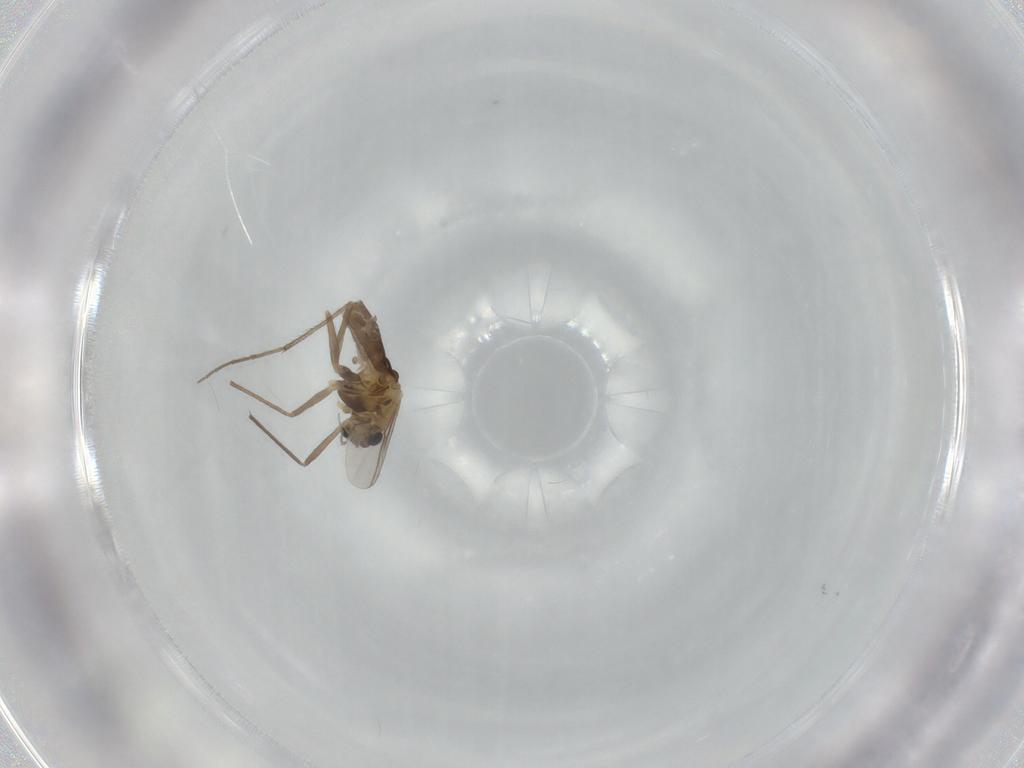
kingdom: Animalia
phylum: Arthropoda
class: Insecta
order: Diptera
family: Chironomidae
